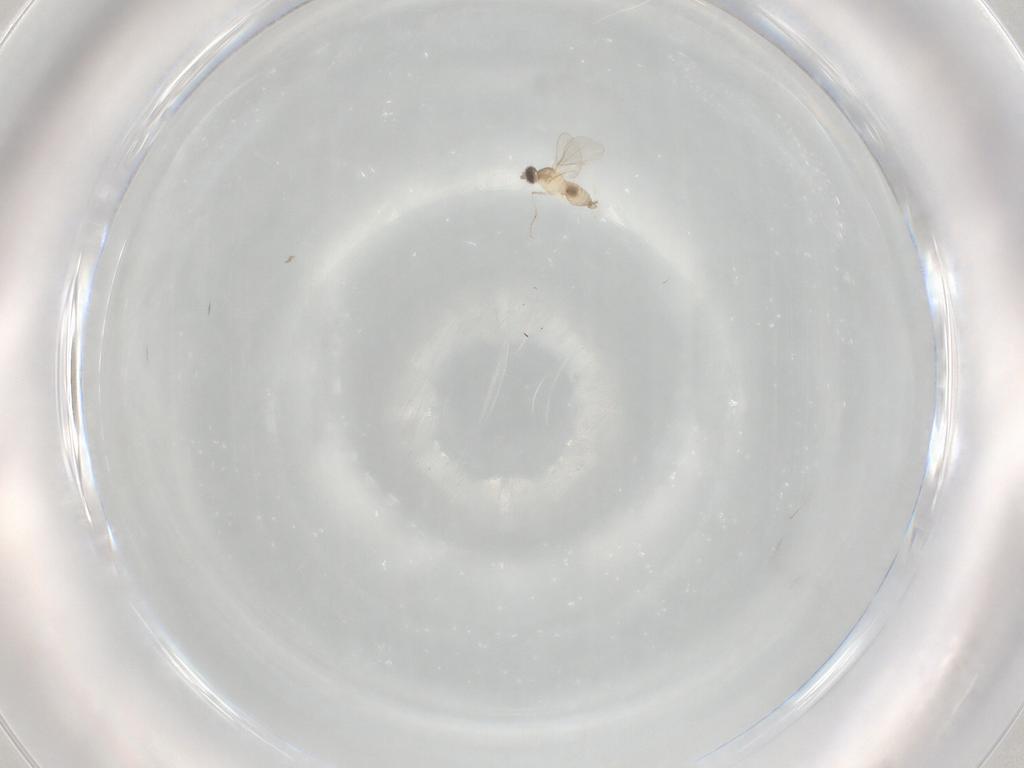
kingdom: Animalia
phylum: Arthropoda
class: Insecta
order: Diptera
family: Cecidomyiidae
